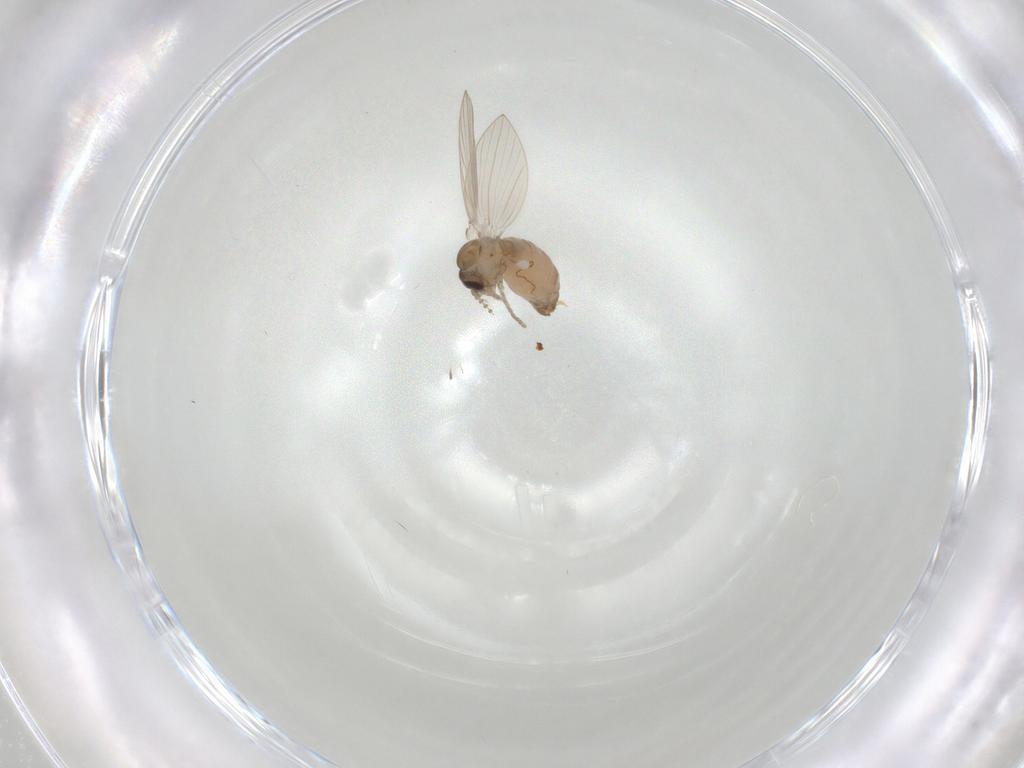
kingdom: Animalia
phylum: Arthropoda
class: Insecta
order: Diptera
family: Psychodidae
